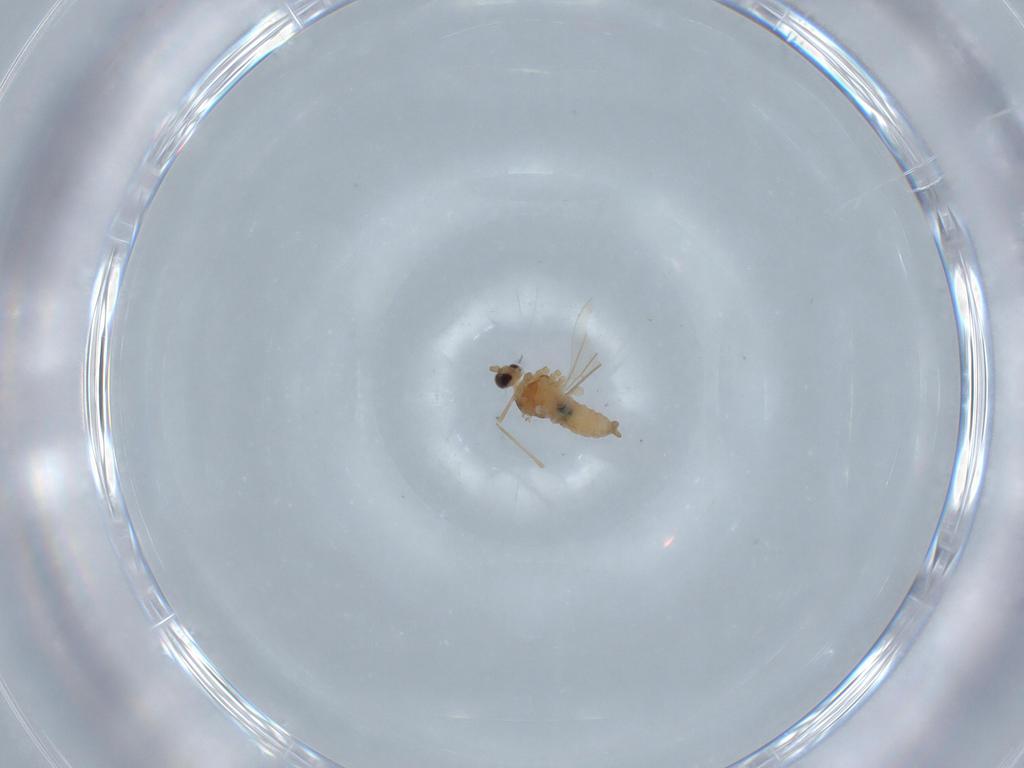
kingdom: Animalia
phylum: Arthropoda
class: Insecta
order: Diptera
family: Cecidomyiidae
